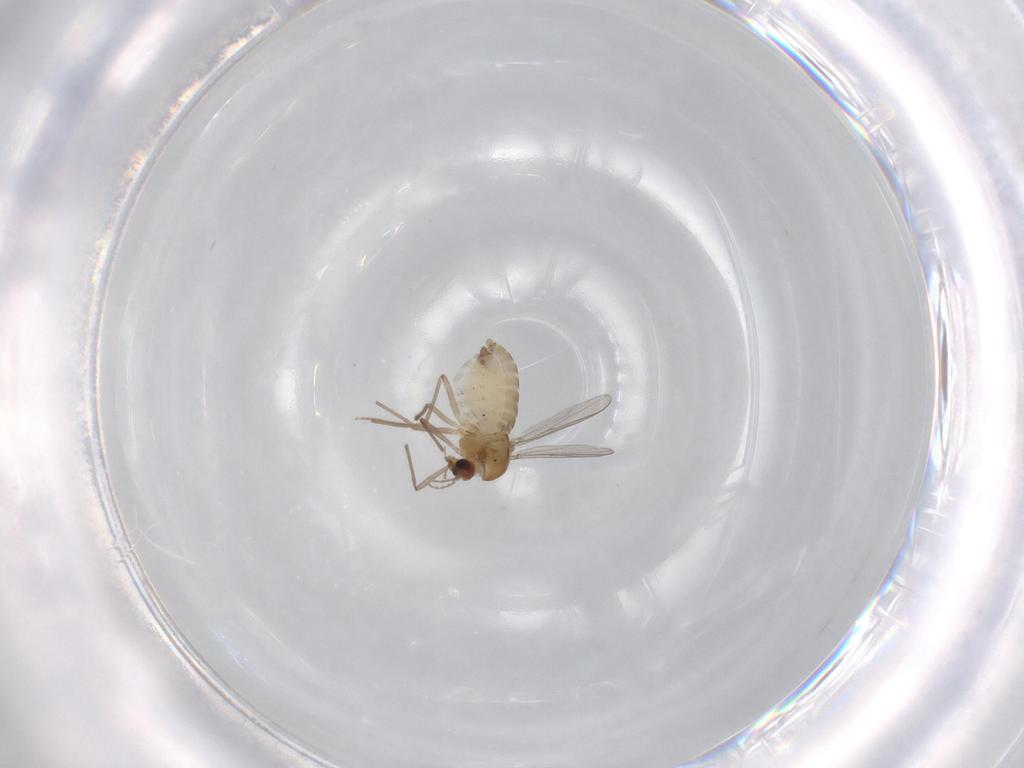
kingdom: Animalia
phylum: Arthropoda
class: Insecta
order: Diptera
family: Chironomidae
